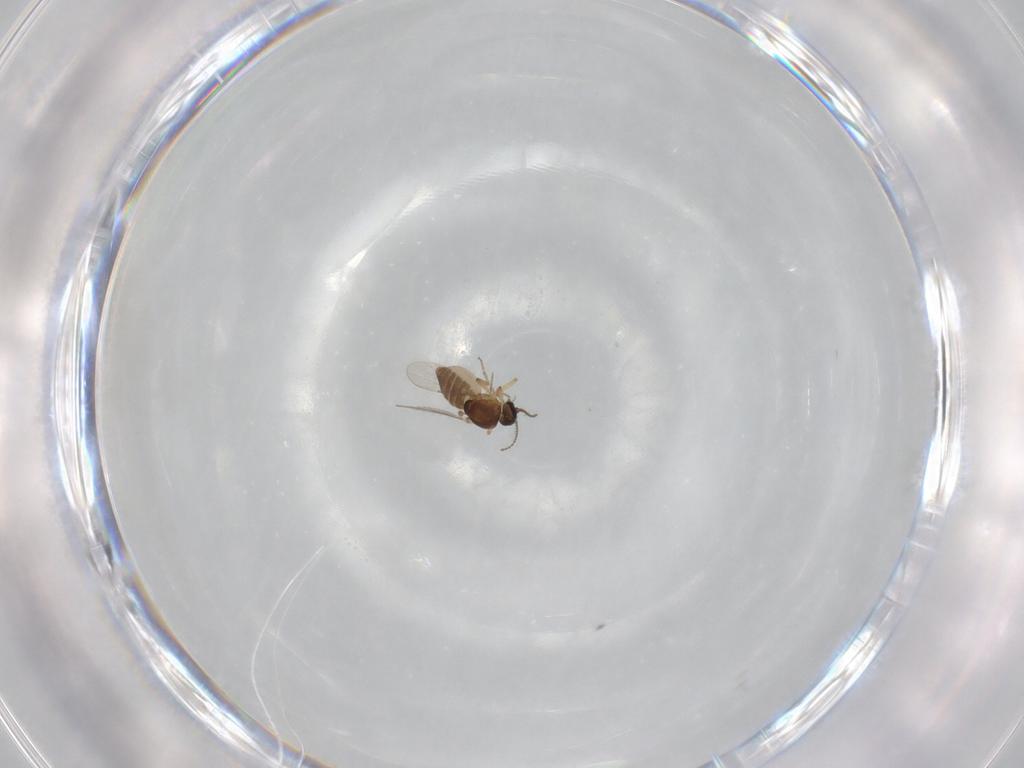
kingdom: Animalia
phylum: Arthropoda
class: Insecta
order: Diptera
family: Ceratopogonidae
